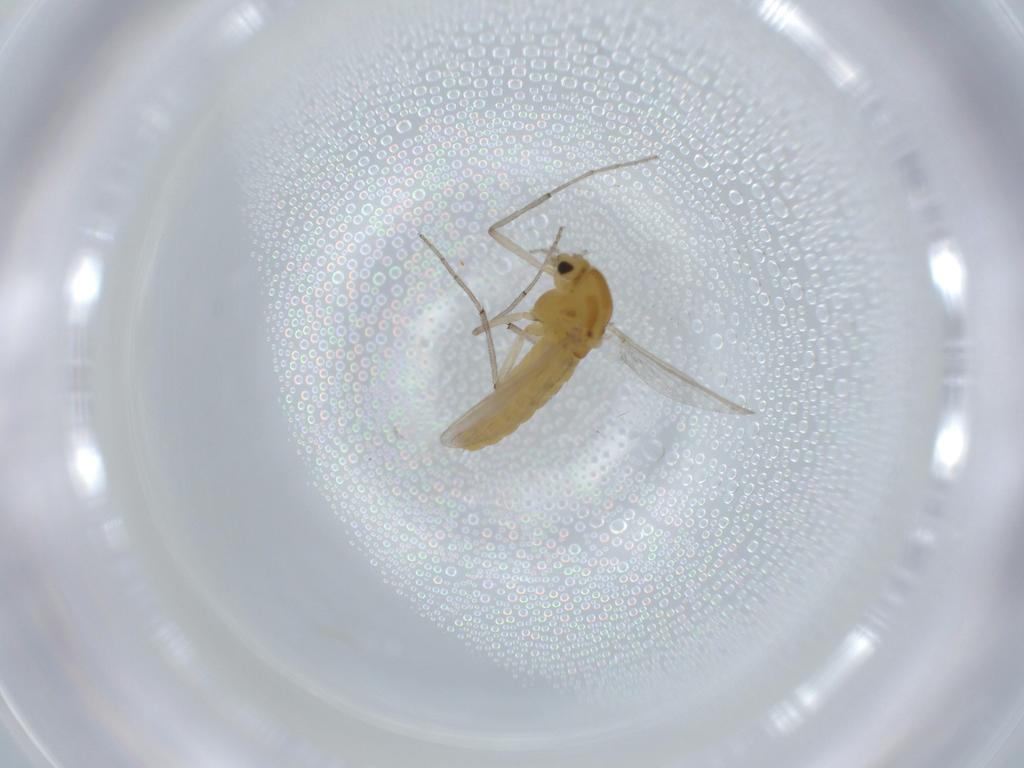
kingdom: Animalia
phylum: Arthropoda
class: Insecta
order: Diptera
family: Chironomidae
